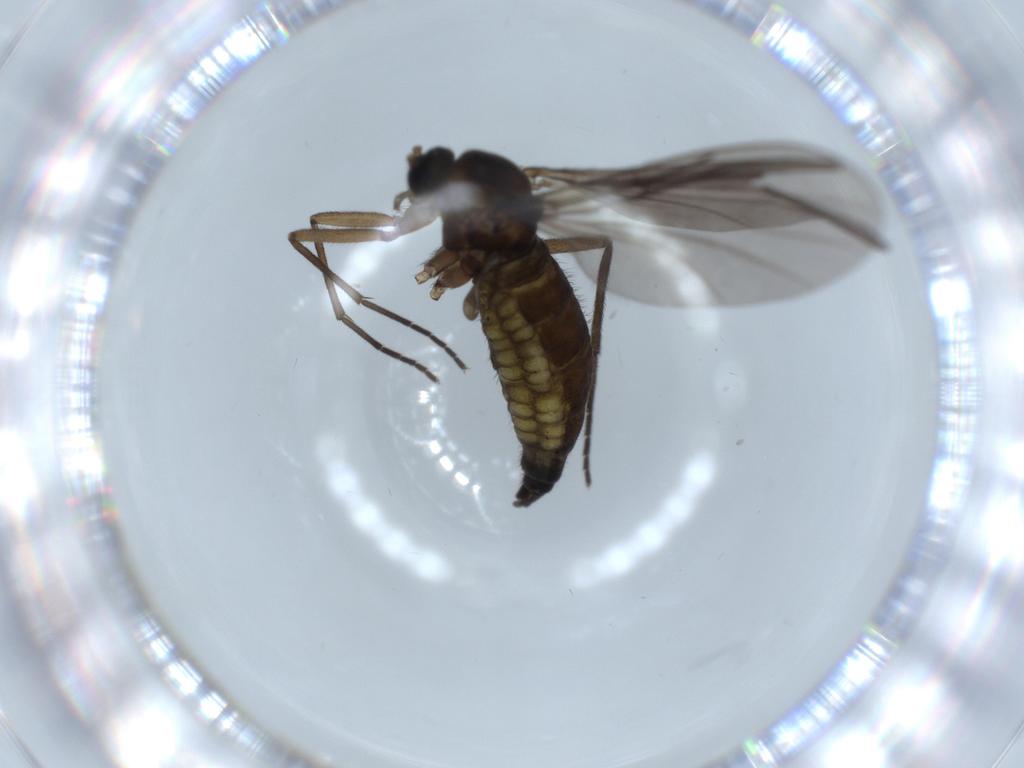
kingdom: Animalia
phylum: Arthropoda
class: Insecta
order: Diptera
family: Sciaridae
